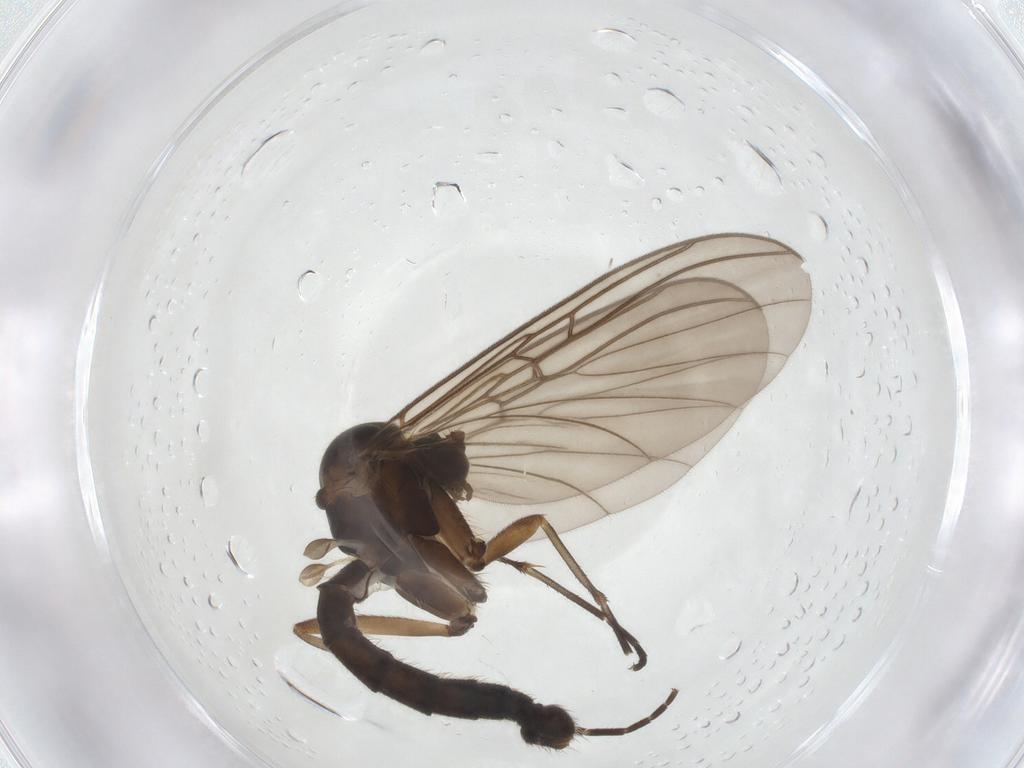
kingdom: Animalia
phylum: Arthropoda
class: Insecta
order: Diptera
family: Mycetophilidae
